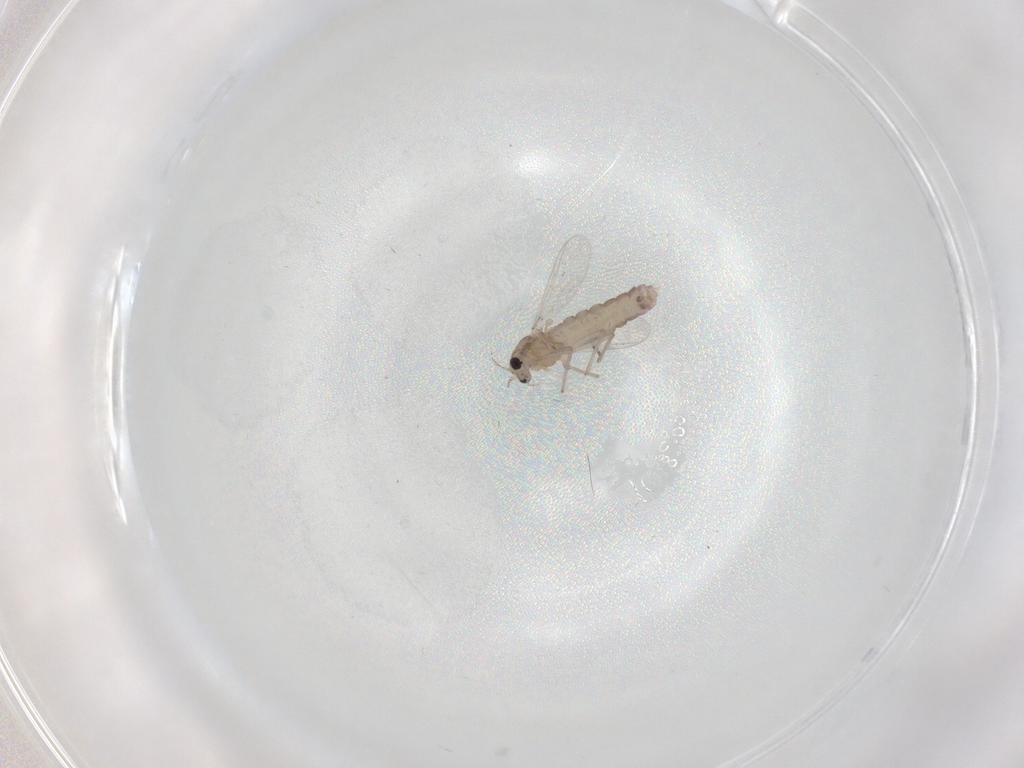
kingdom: Animalia
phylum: Arthropoda
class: Insecta
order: Diptera
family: Chironomidae
